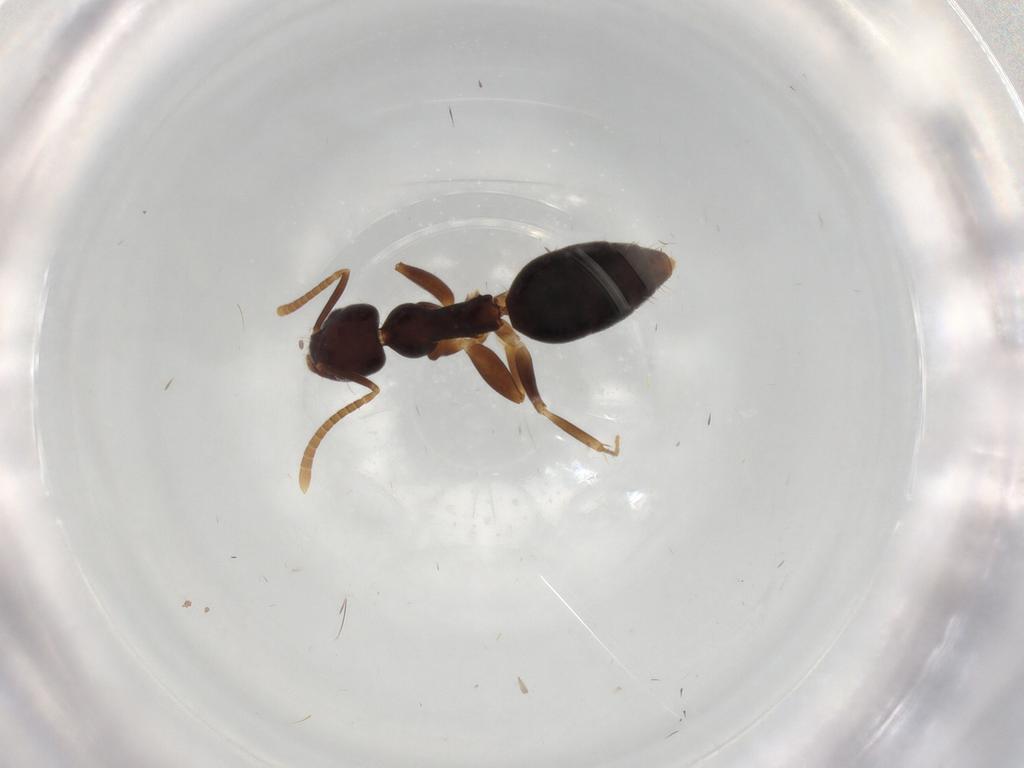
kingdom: Animalia
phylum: Arthropoda
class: Insecta
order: Hymenoptera
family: Formicidae
